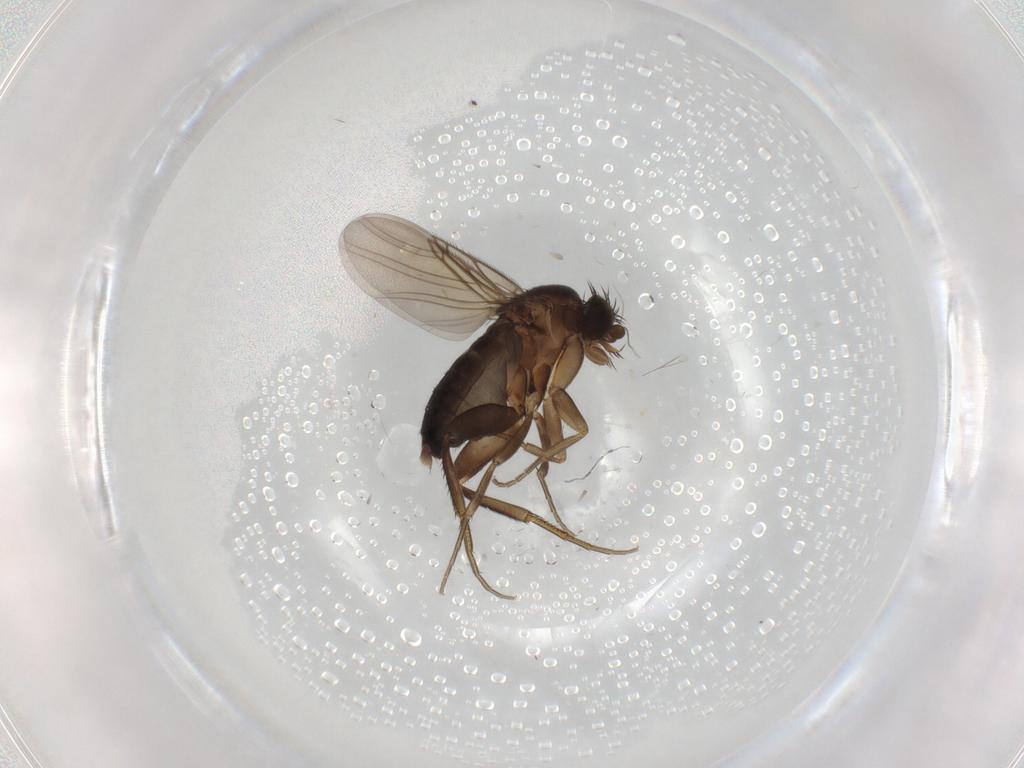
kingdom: Animalia
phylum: Arthropoda
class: Insecta
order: Diptera
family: Phoridae
